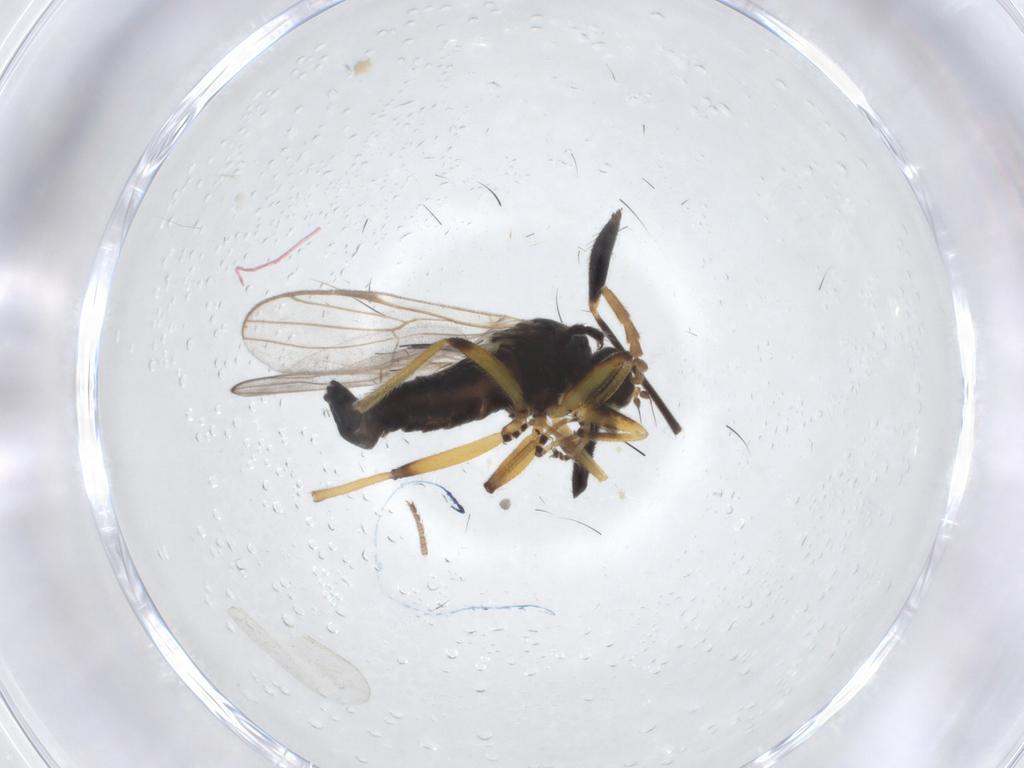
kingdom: Animalia
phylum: Arthropoda
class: Insecta
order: Diptera
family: Hybotidae
